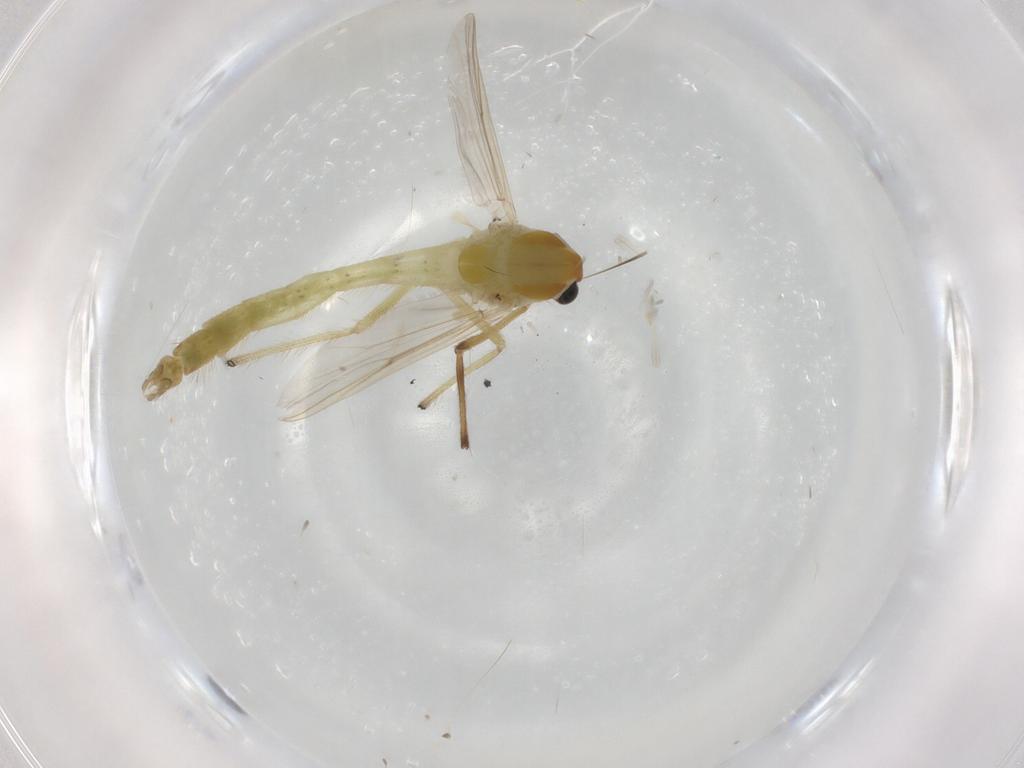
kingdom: Animalia
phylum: Arthropoda
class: Insecta
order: Diptera
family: Chironomidae
